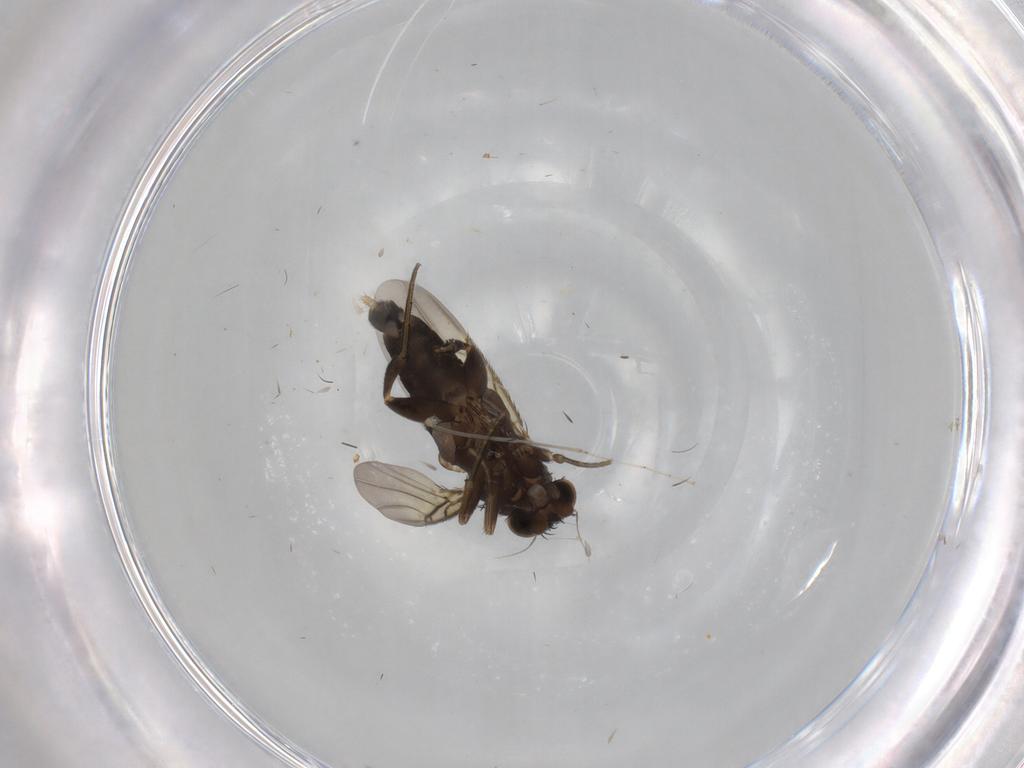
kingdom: Animalia
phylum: Arthropoda
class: Insecta
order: Diptera
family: Phoridae
